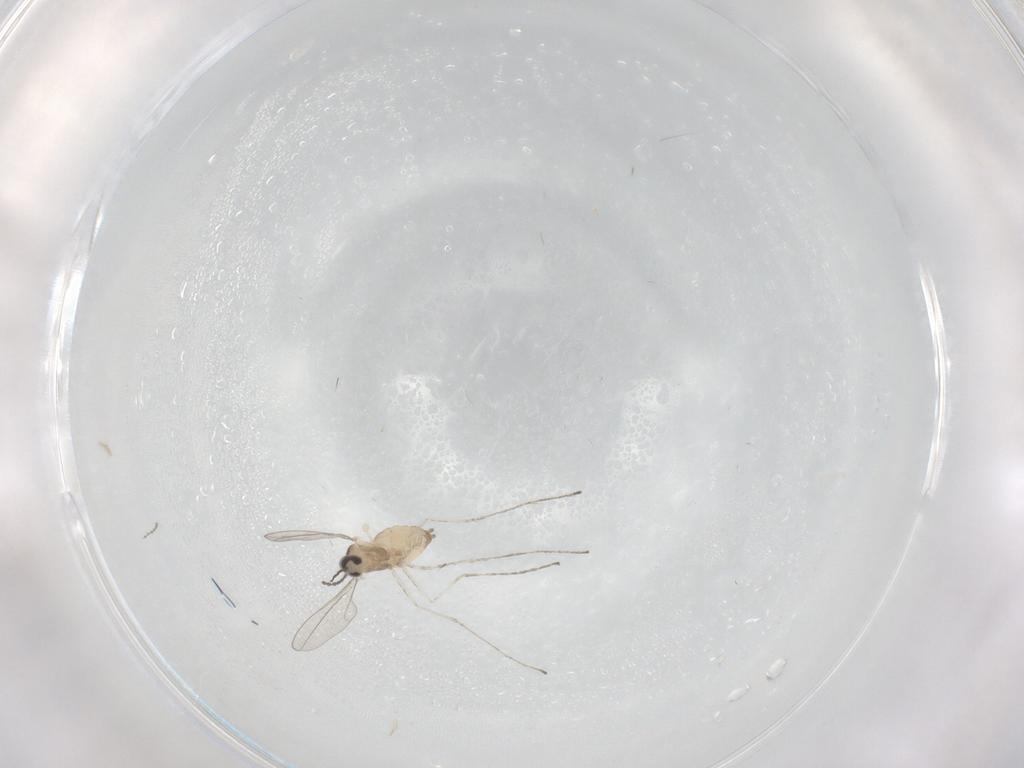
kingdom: Animalia
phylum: Arthropoda
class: Insecta
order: Diptera
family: Cecidomyiidae
